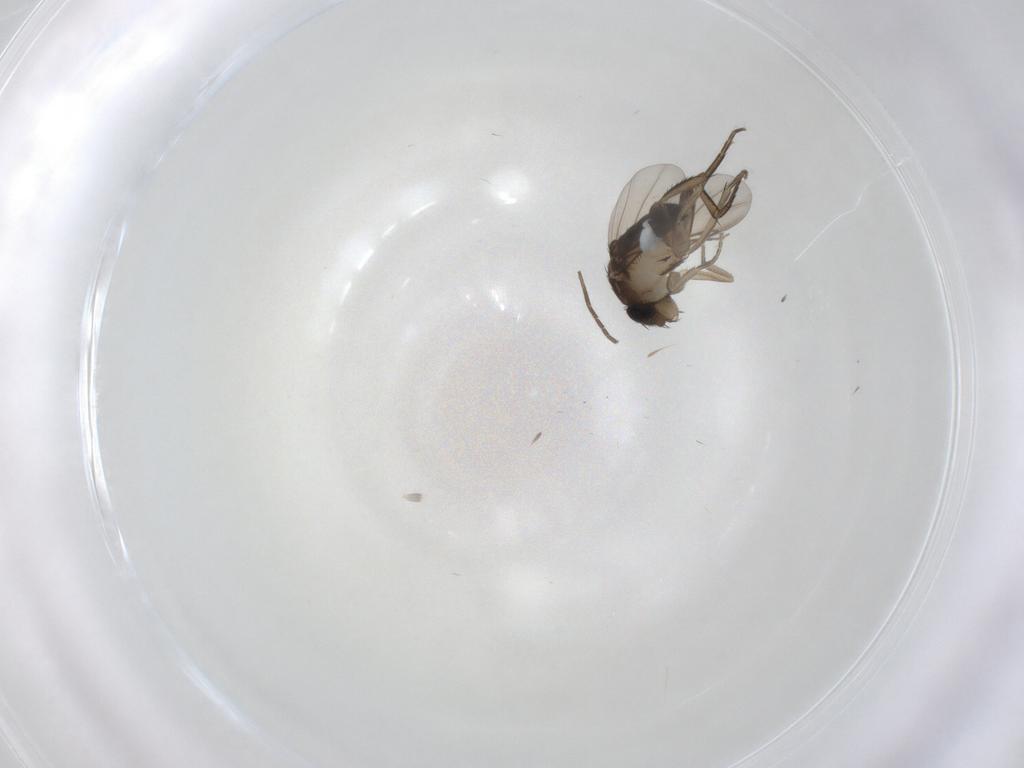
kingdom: Animalia
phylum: Arthropoda
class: Insecta
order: Diptera
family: Phoridae
